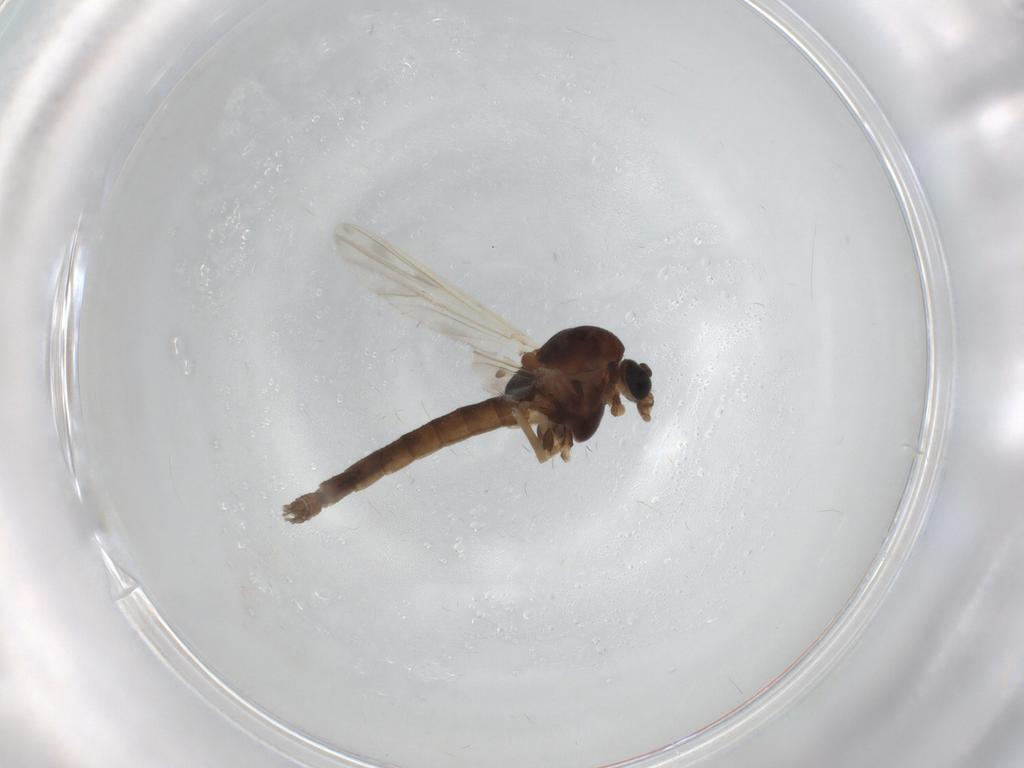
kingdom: Animalia
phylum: Arthropoda
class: Insecta
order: Diptera
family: Chironomidae
